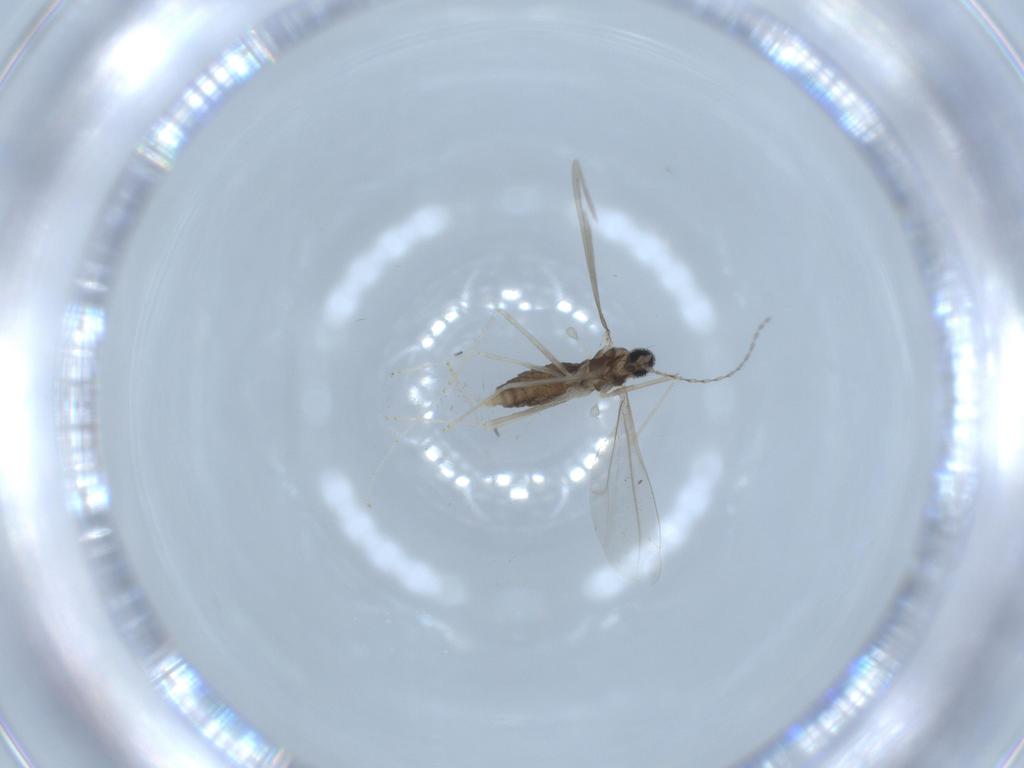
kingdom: Animalia
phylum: Arthropoda
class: Insecta
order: Diptera
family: Cecidomyiidae
